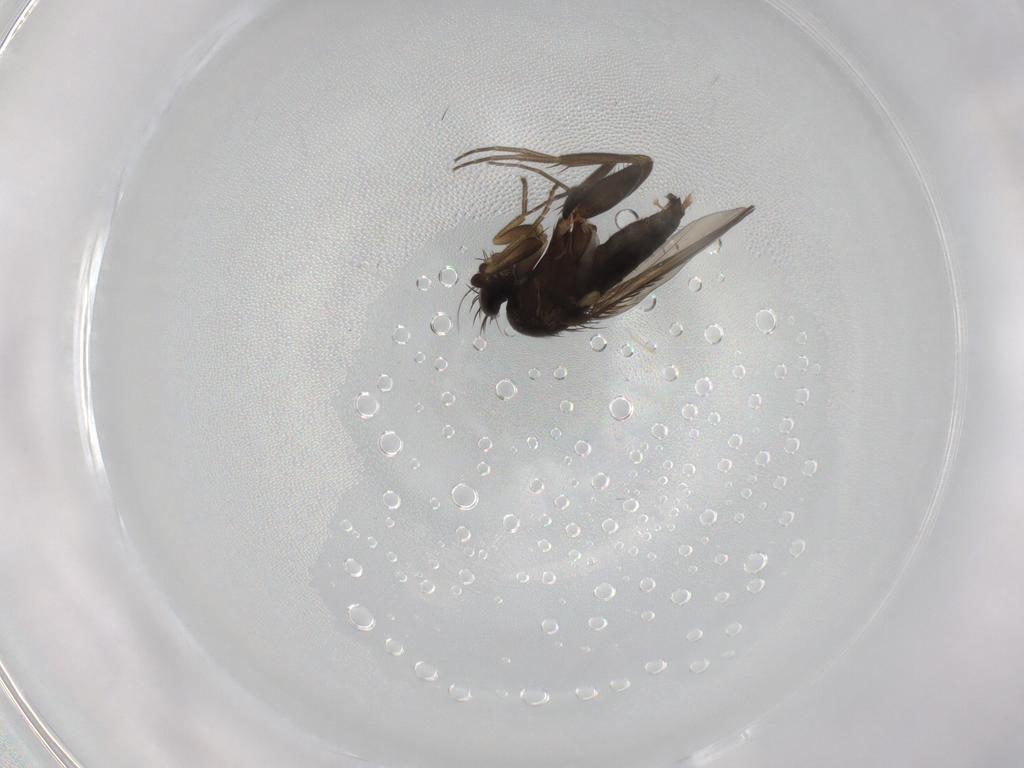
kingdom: Animalia
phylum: Arthropoda
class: Insecta
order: Diptera
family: Phoridae
